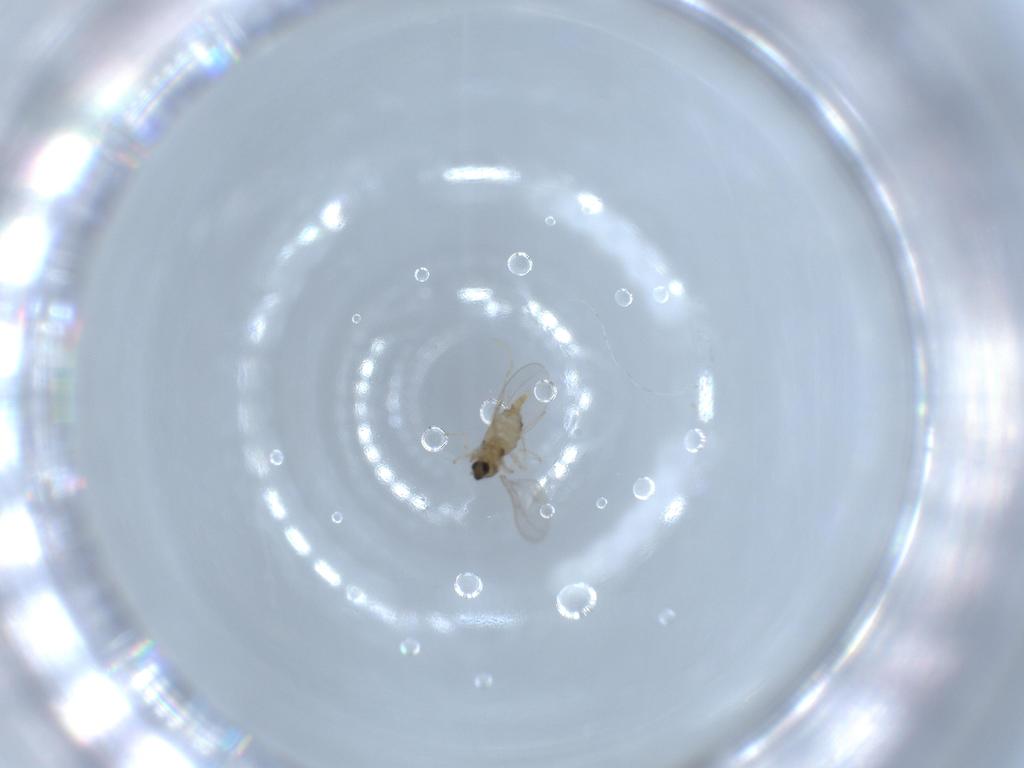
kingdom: Animalia
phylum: Arthropoda
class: Insecta
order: Diptera
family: Cecidomyiidae
